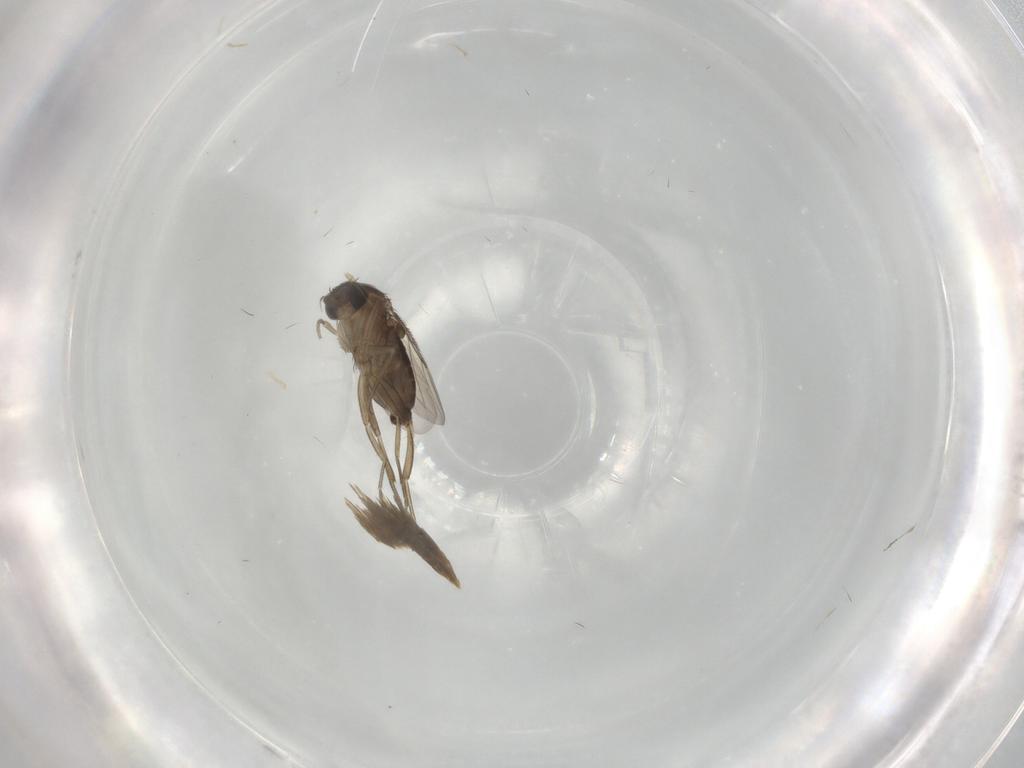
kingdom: Animalia
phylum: Arthropoda
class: Insecta
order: Diptera
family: Phoridae
